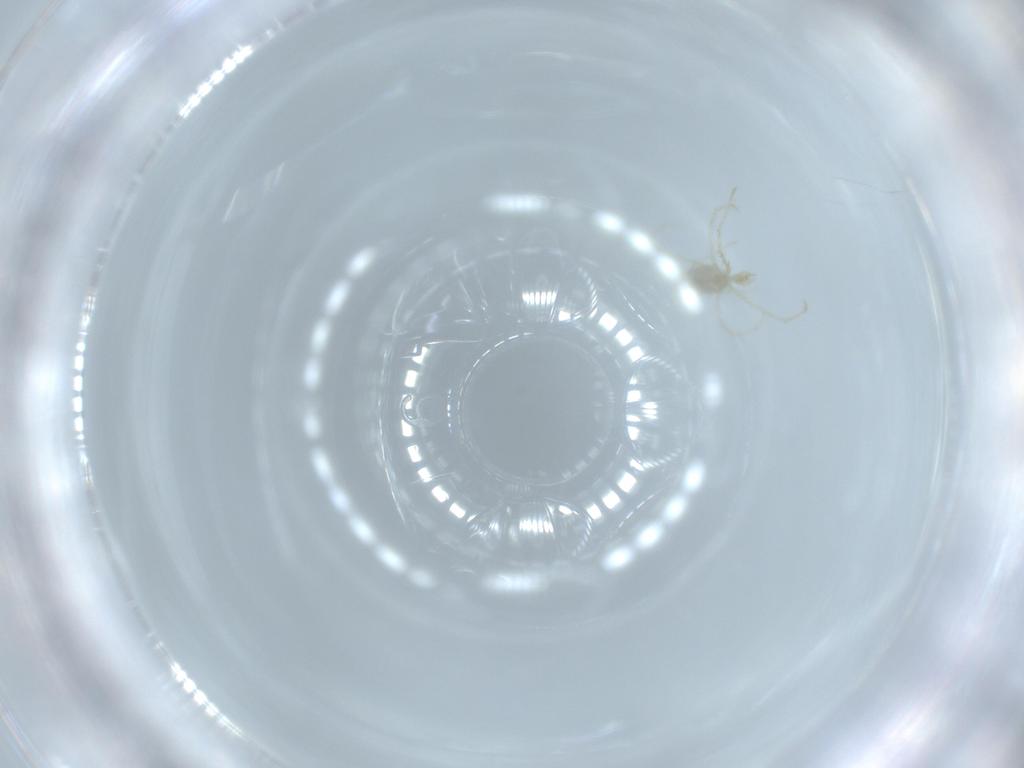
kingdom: Animalia
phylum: Arthropoda
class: Arachnida
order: Trombidiformes
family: Erythraeidae
